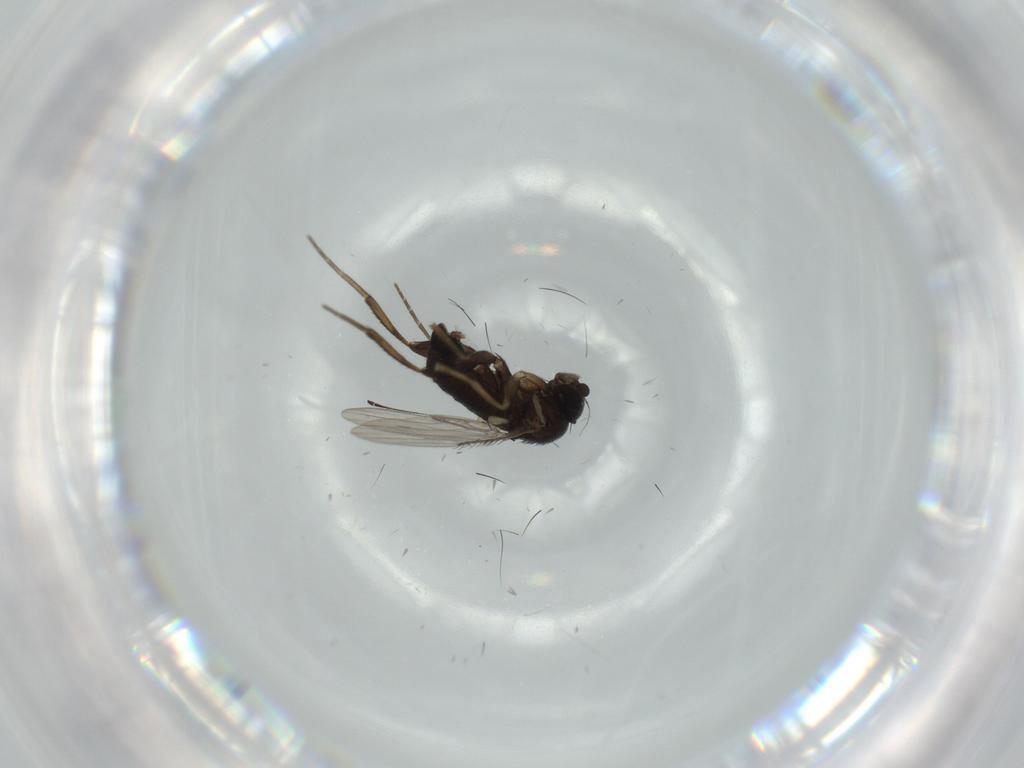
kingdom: Animalia
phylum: Arthropoda
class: Insecta
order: Diptera
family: Phoridae
